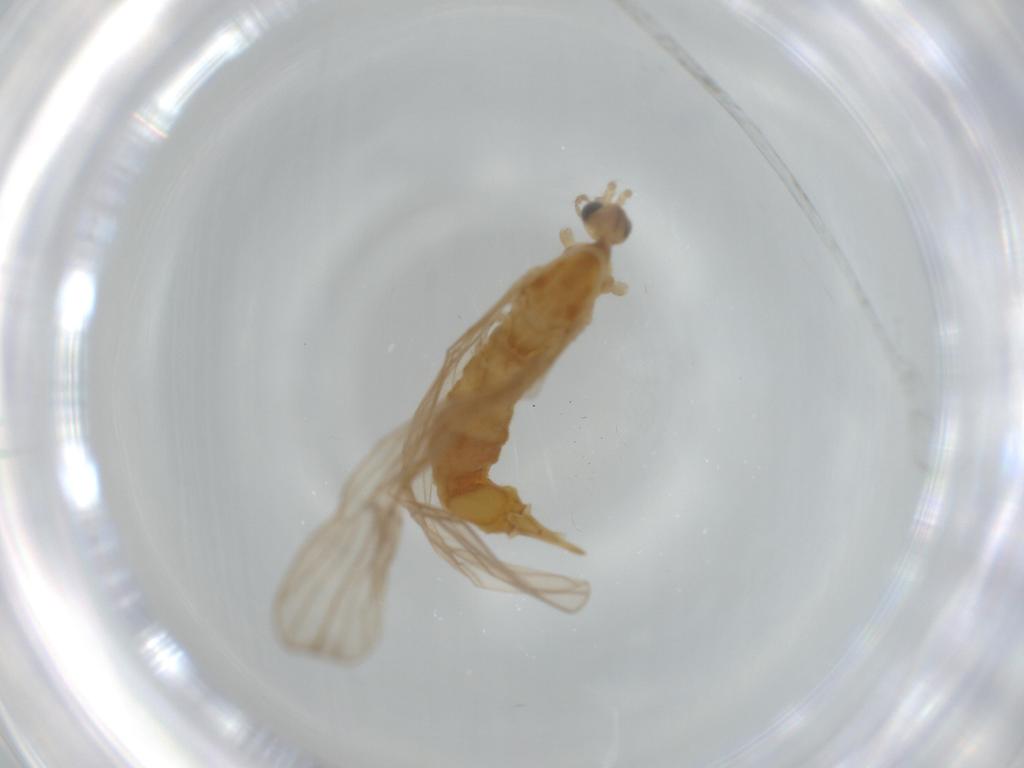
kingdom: Animalia
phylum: Arthropoda
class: Insecta
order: Diptera
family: Limoniidae
